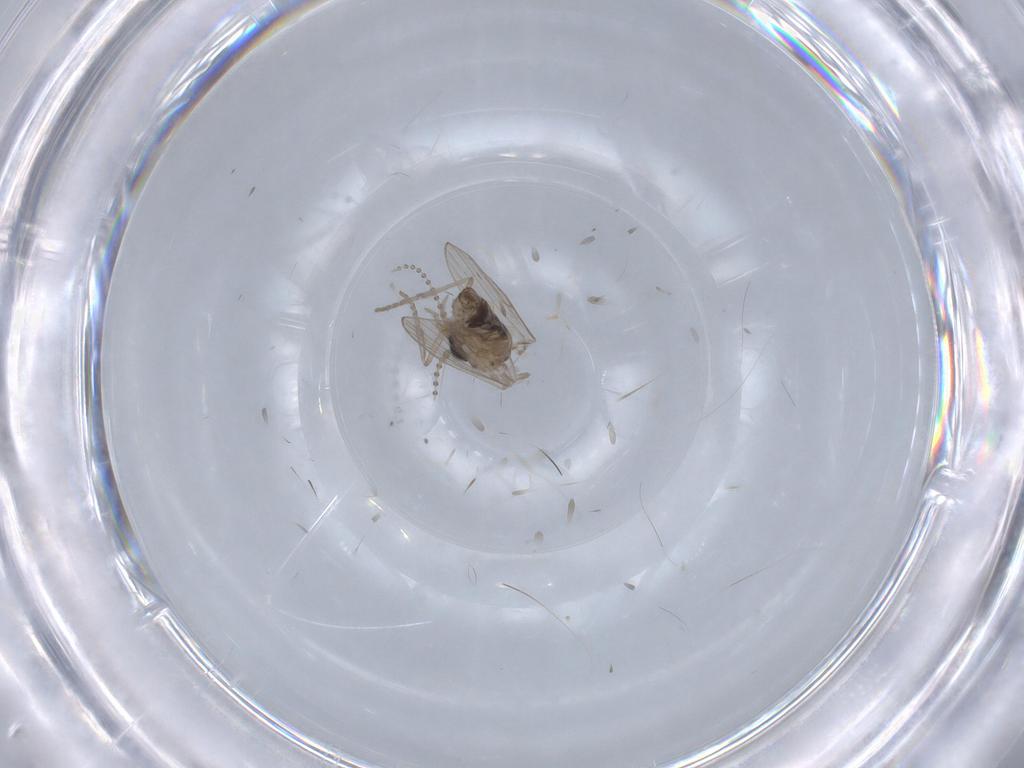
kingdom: Animalia
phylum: Arthropoda
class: Insecta
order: Diptera
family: Psychodidae
